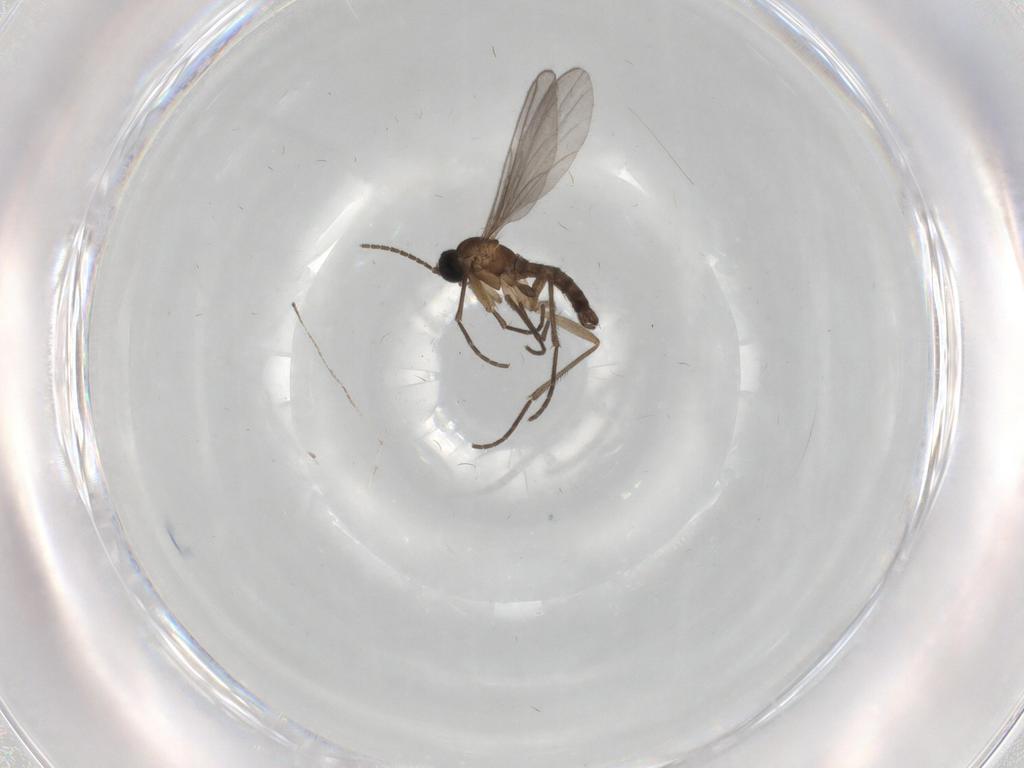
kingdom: Animalia
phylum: Arthropoda
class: Insecta
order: Diptera
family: Sciaridae
